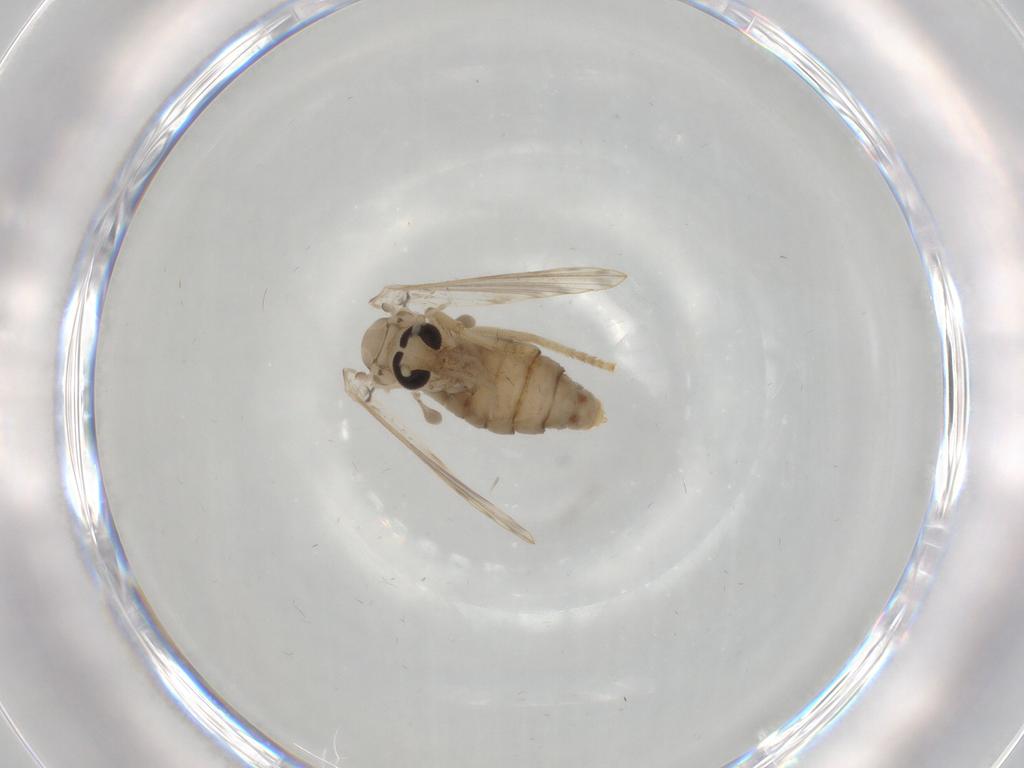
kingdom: Animalia
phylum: Arthropoda
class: Insecta
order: Diptera
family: Psychodidae
